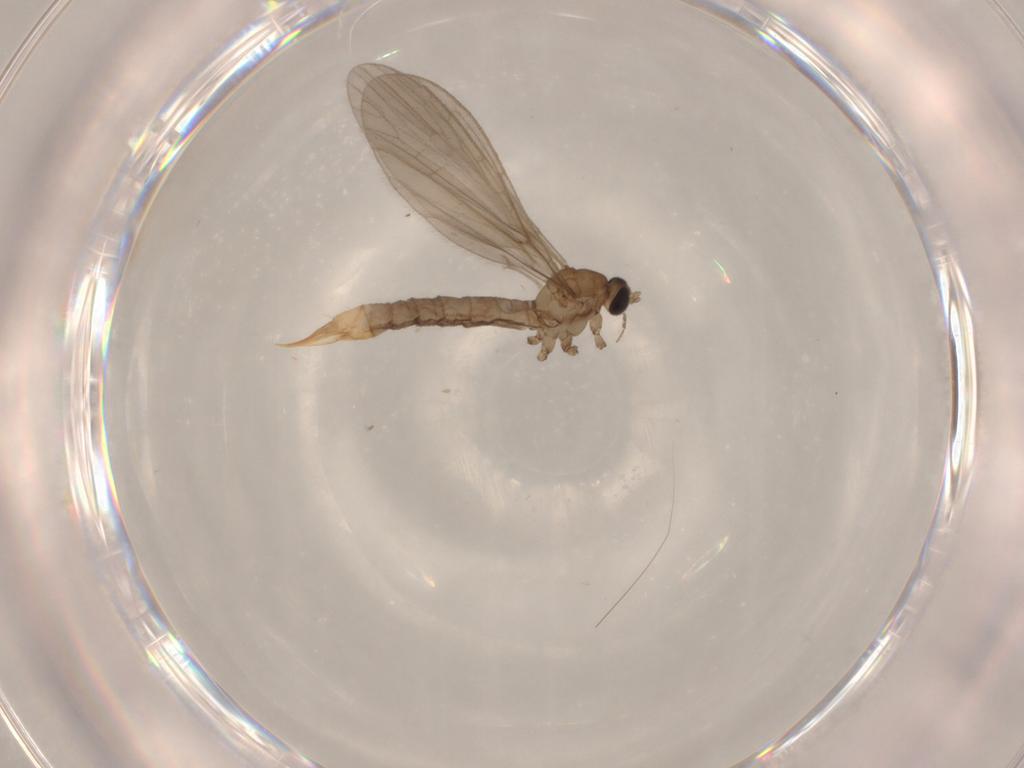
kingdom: Animalia
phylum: Arthropoda
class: Insecta
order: Diptera
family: Limoniidae
